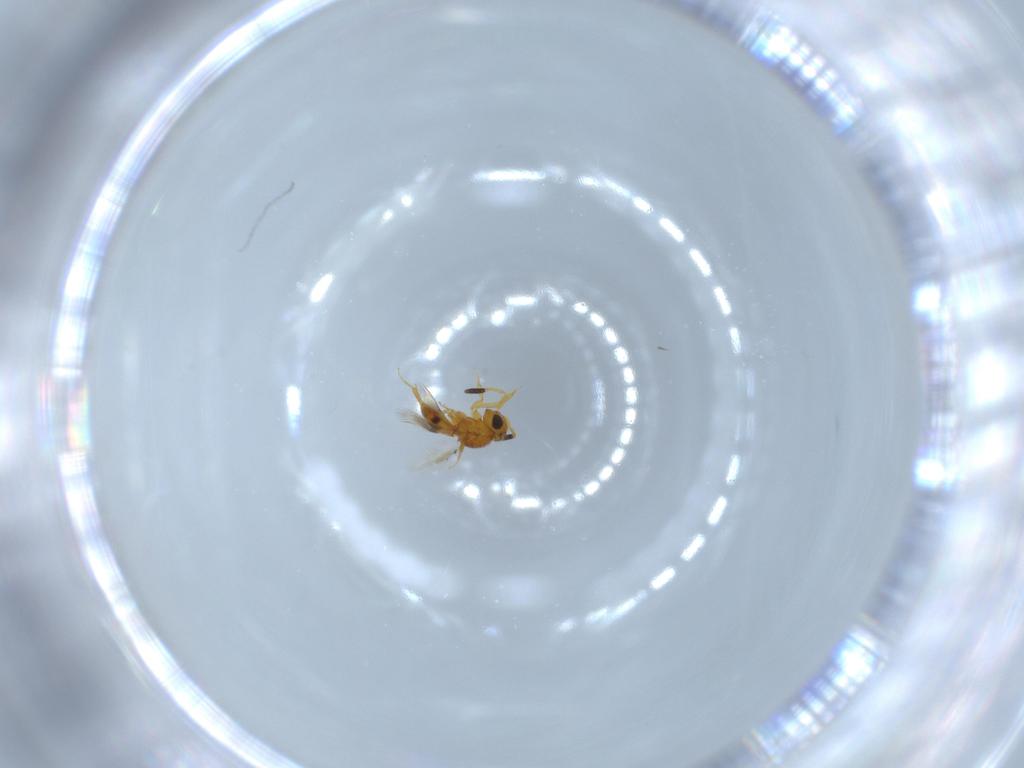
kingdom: Animalia
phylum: Arthropoda
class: Insecta
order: Hymenoptera
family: Scelionidae
